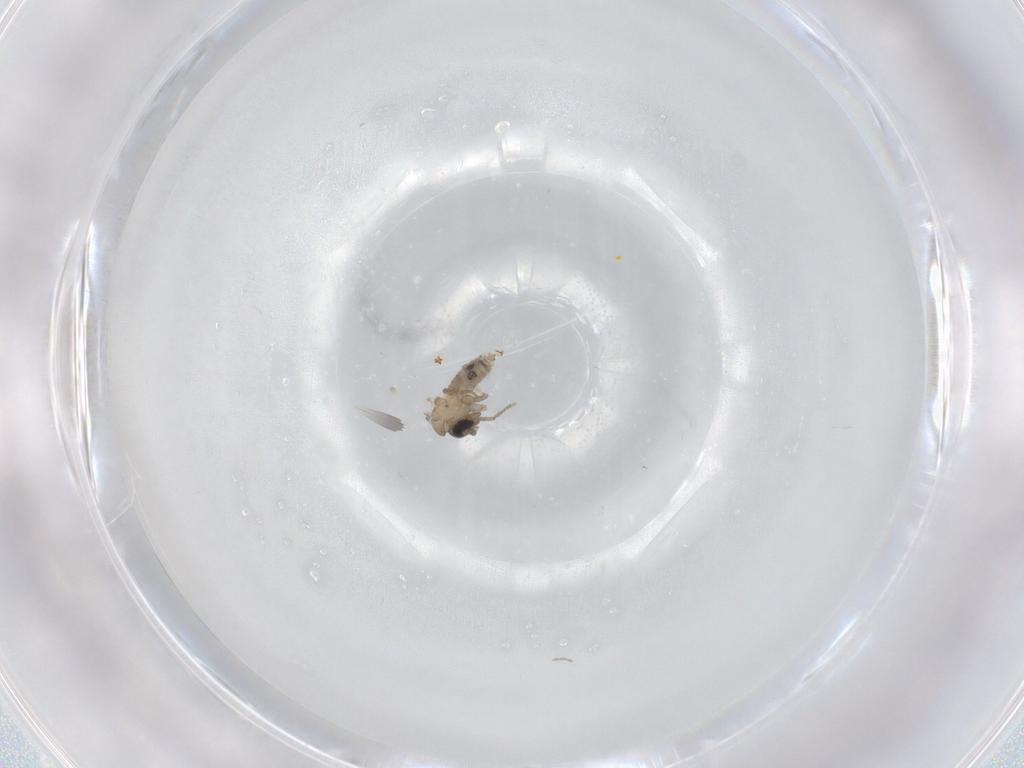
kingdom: Animalia
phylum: Arthropoda
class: Insecta
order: Diptera
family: Psychodidae
